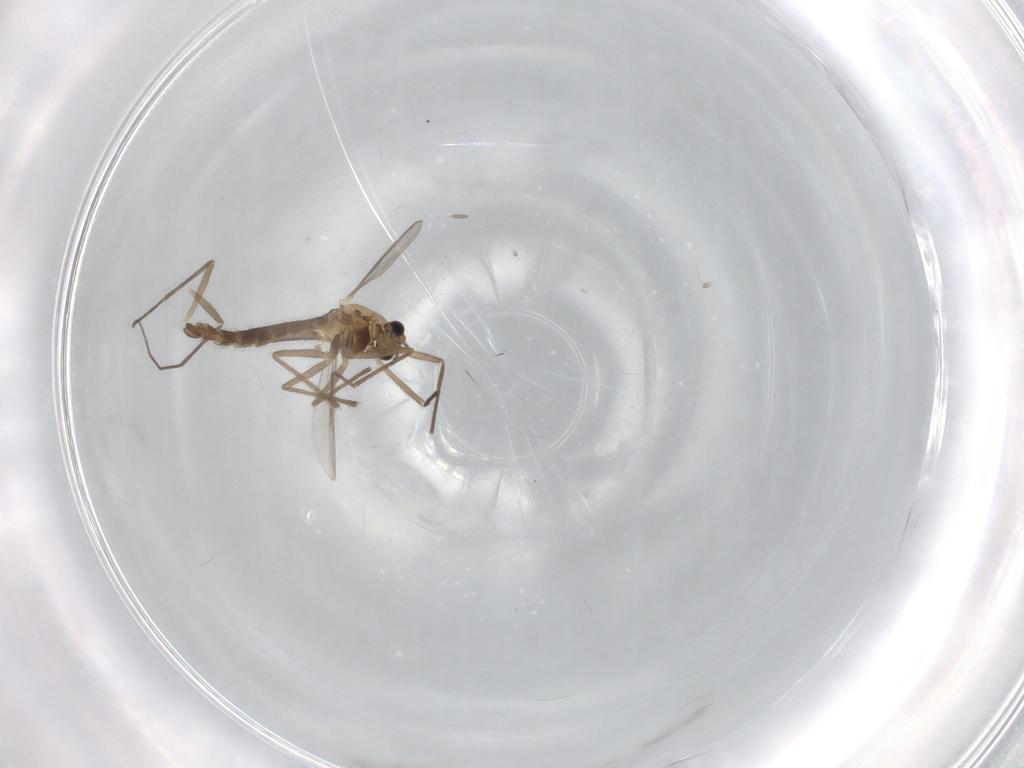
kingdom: Animalia
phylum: Arthropoda
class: Insecta
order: Diptera
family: Chironomidae
